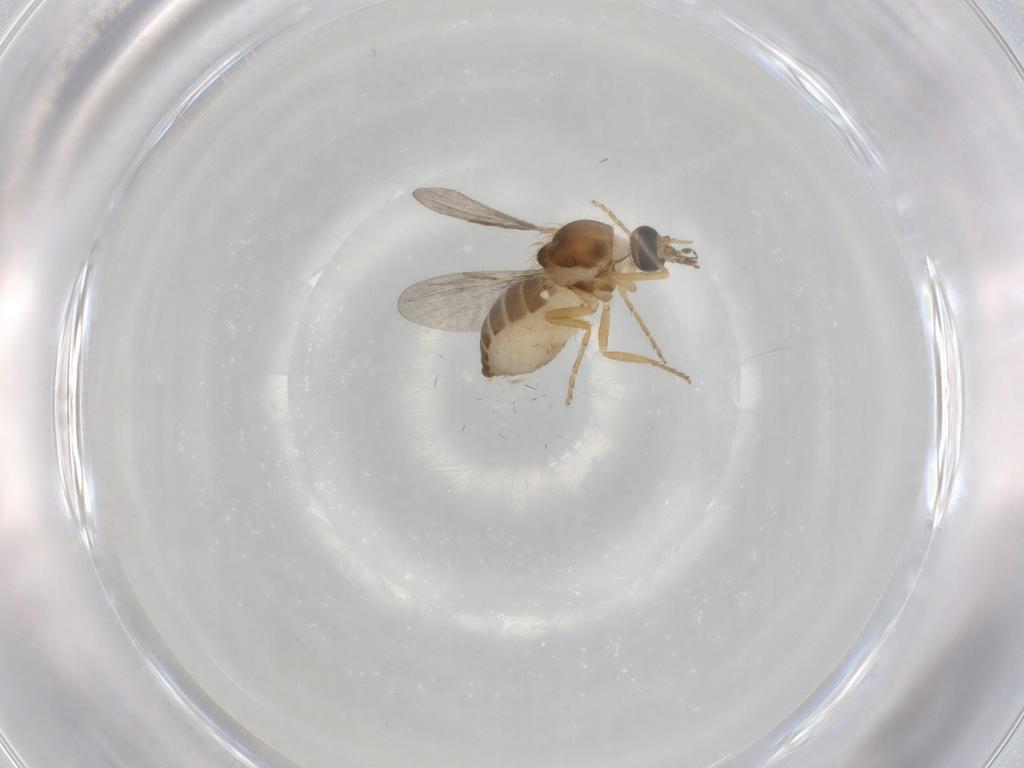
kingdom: Animalia
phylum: Arthropoda
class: Insecta
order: Diptera
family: Ceratopogonidae
